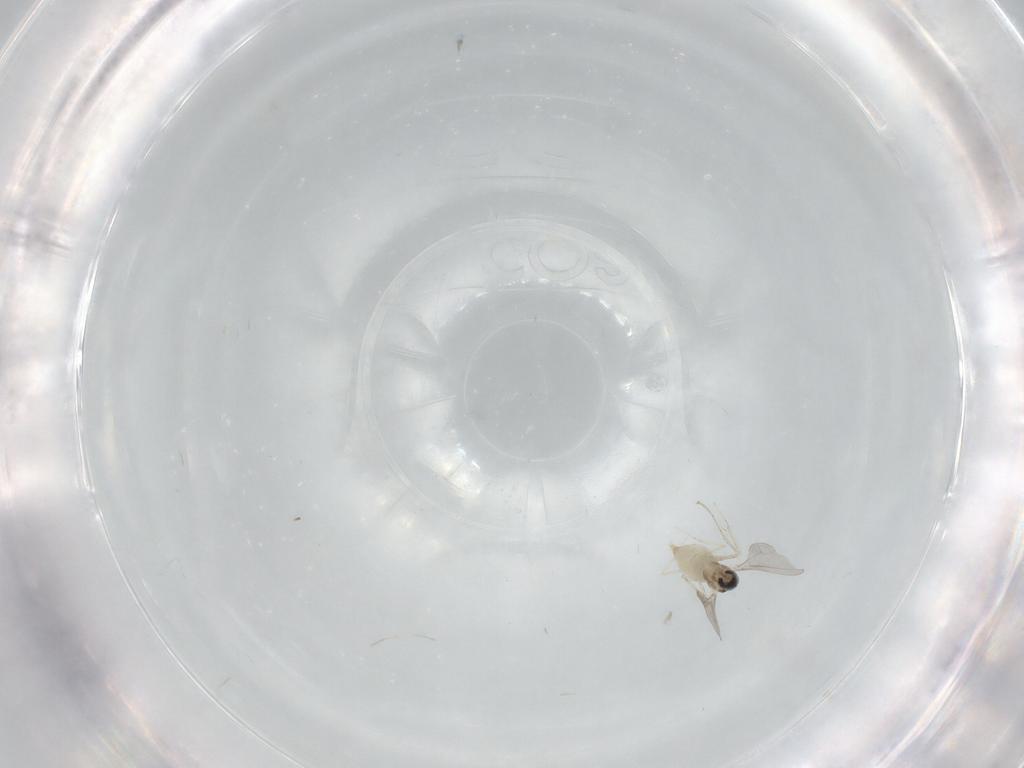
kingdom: Animalia
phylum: Arthropoda
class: Insecta
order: Diptera
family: Cecidomyiidae
